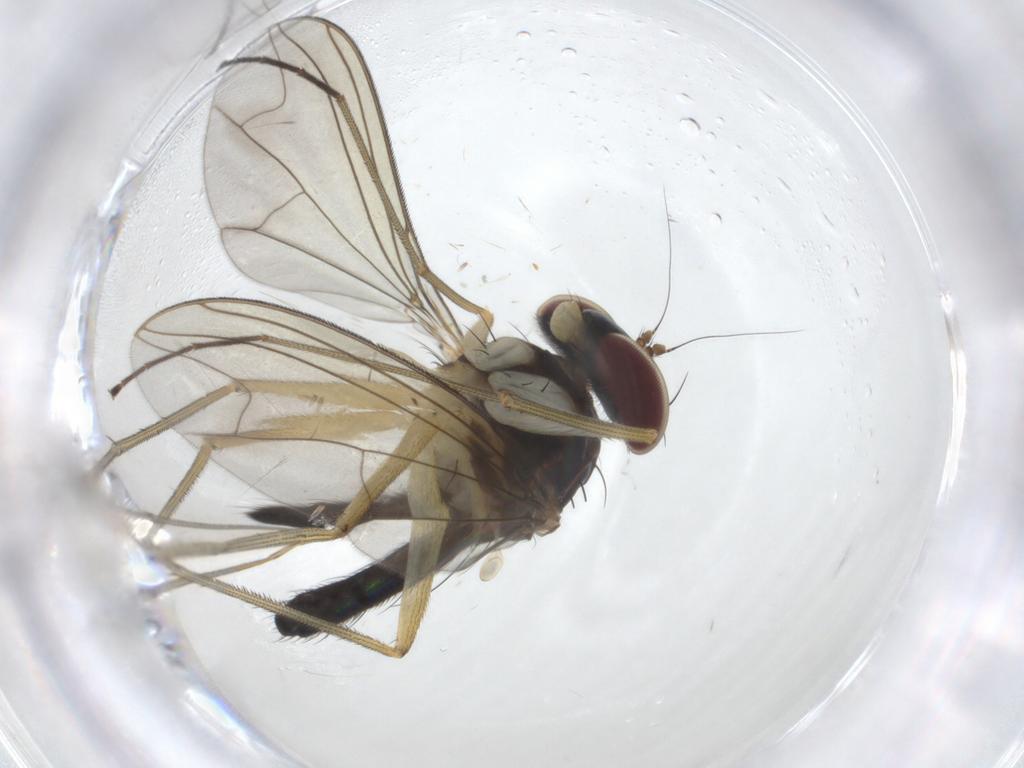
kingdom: Animalia
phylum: Arthropoda
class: Insecta
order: Diptera
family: Dolichopodidae
